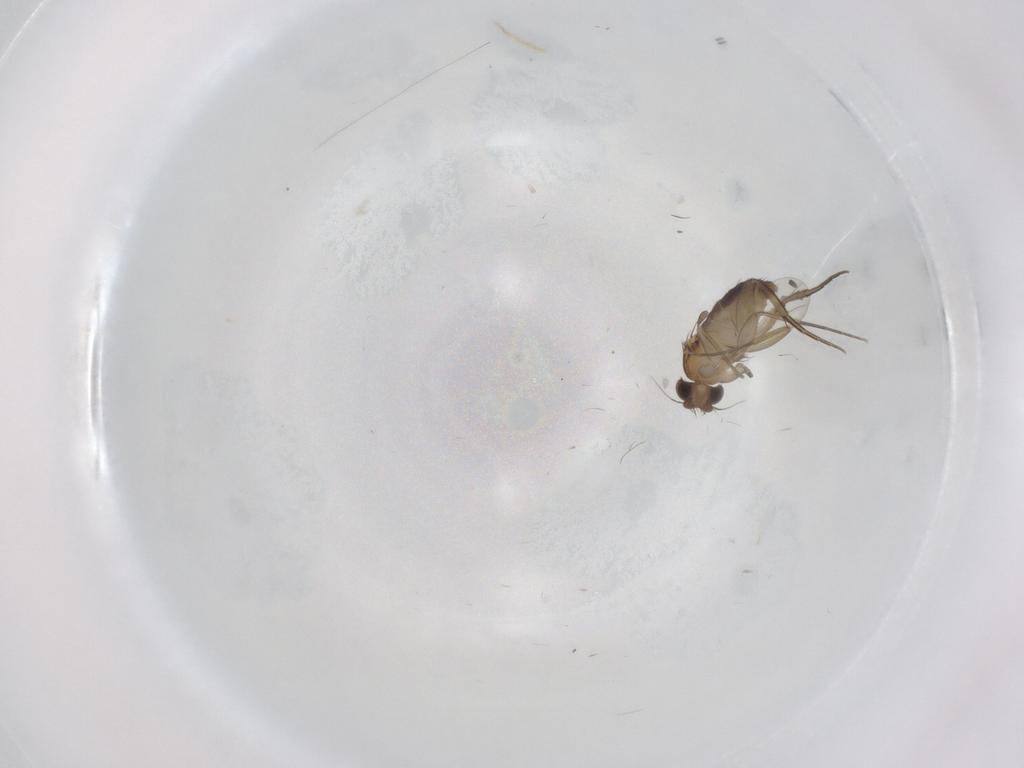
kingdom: Animalia
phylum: Arthropoda
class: Insecta
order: Diptera
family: Phoridae
